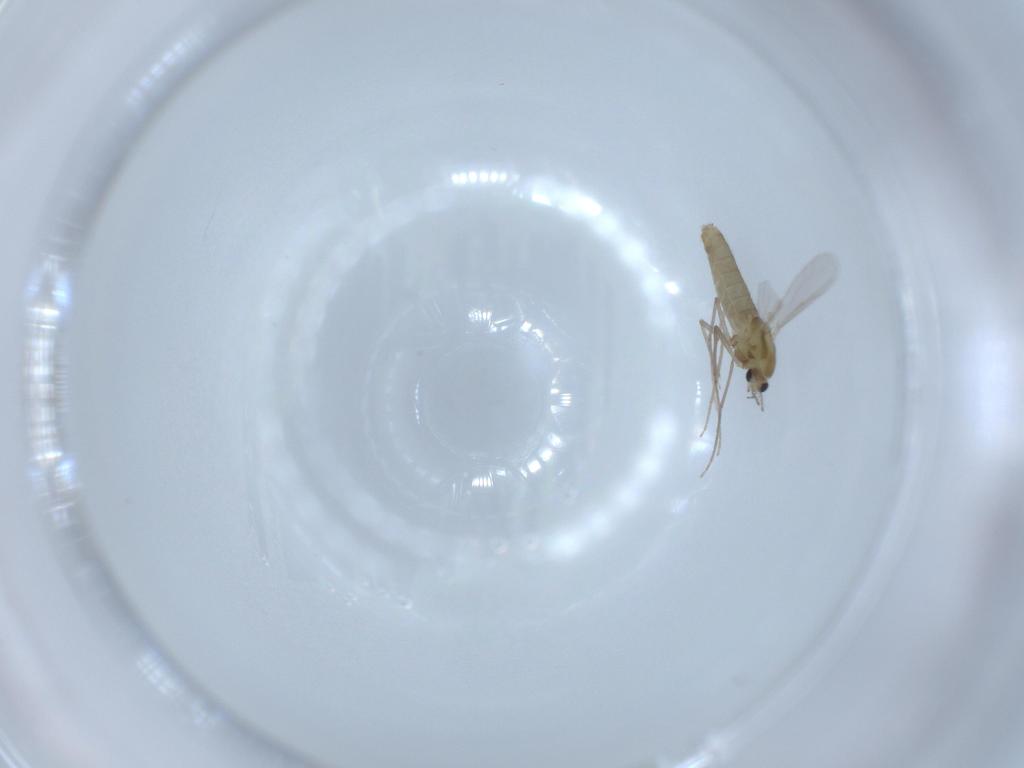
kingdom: Animalia
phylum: Arthropoda
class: Insecta
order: Diptera
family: Chironomidae
